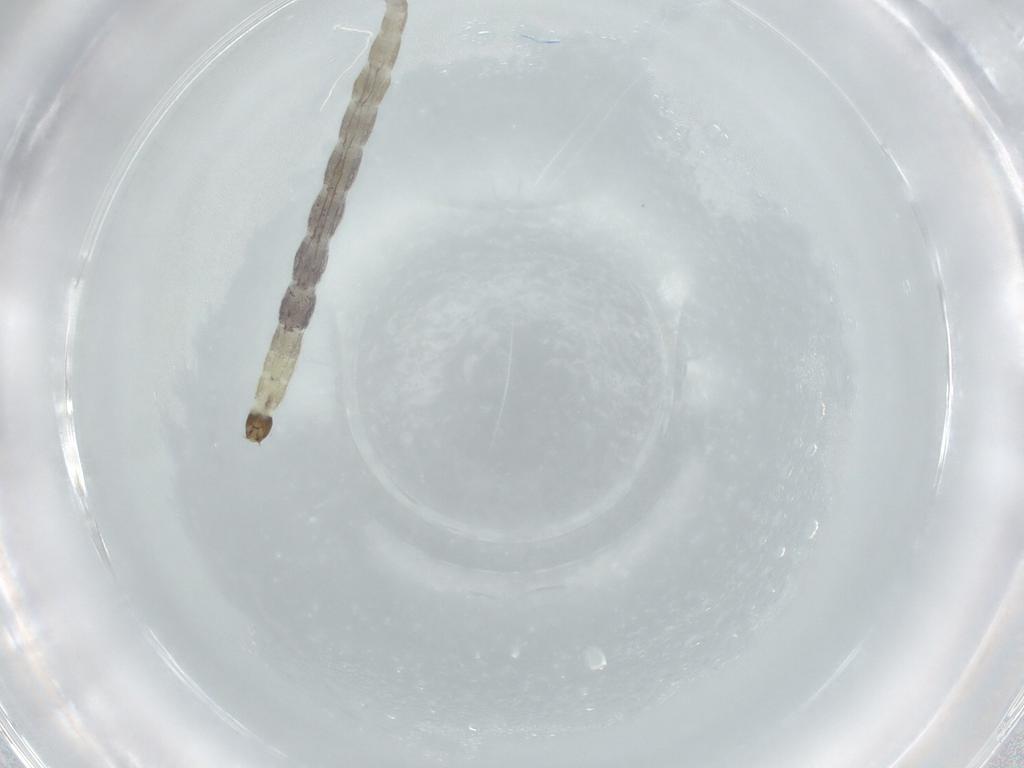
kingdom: Animalia
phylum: Arthropoda
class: Insecta
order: Diptera
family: Chironomidae
